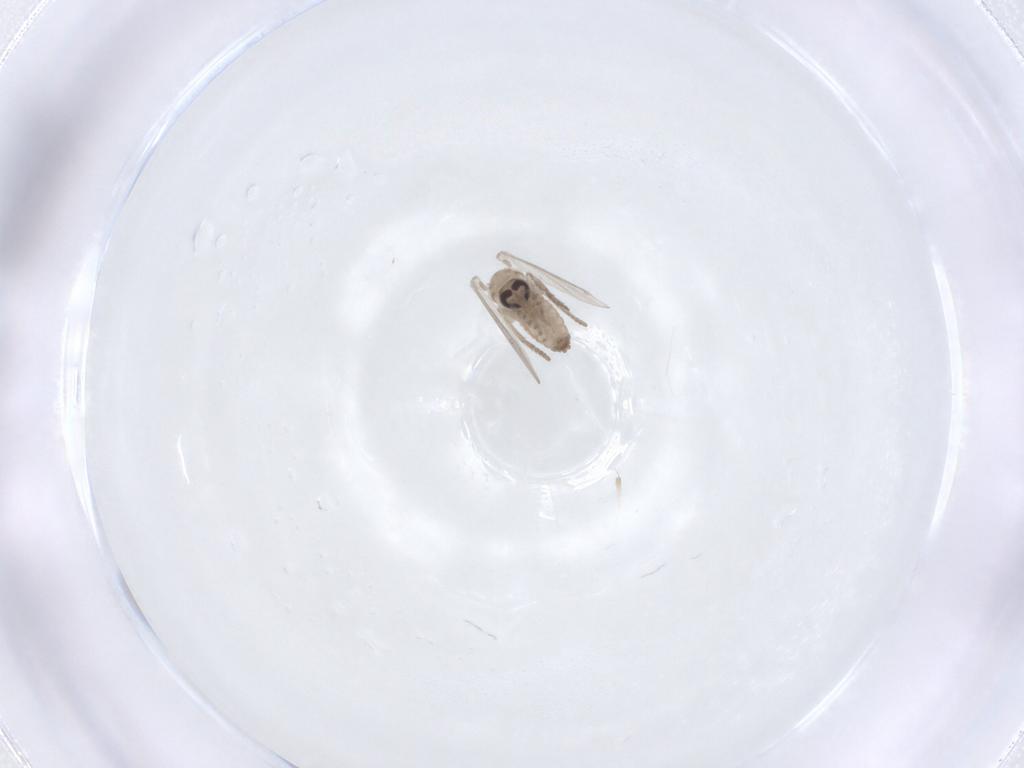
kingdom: Animalia
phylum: Arthropoda
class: Insecta
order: Diptera
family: Psychodidae
